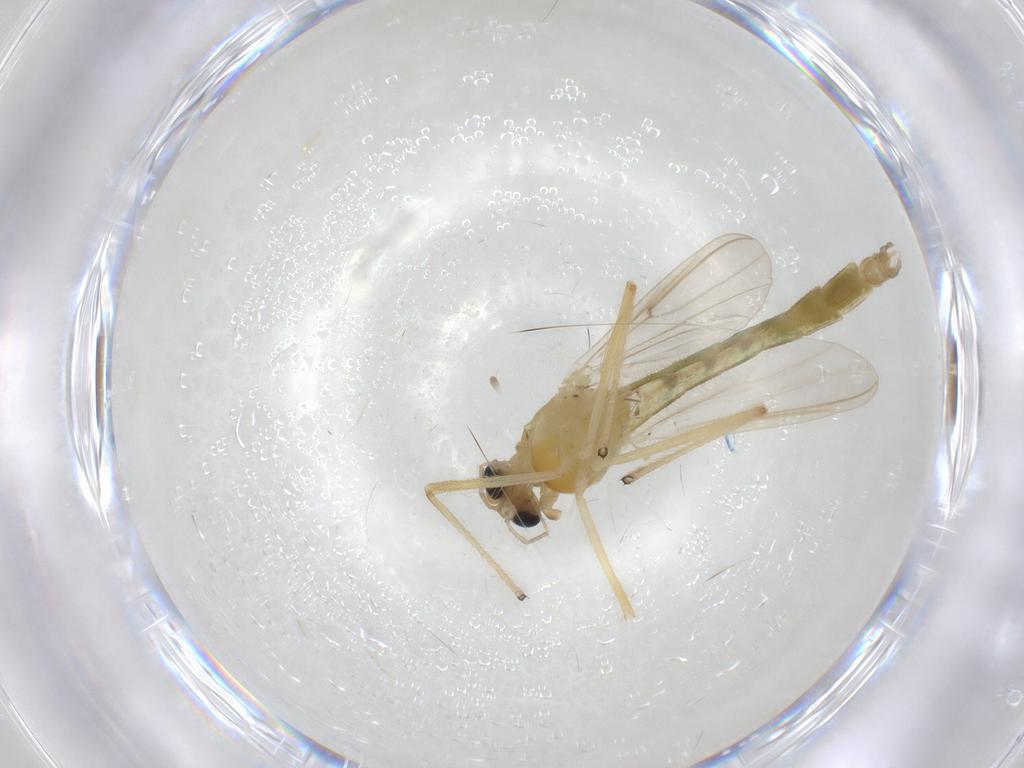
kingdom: Animalia
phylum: Arthropoda
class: Insecta
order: Diptera
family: Chironomidae
